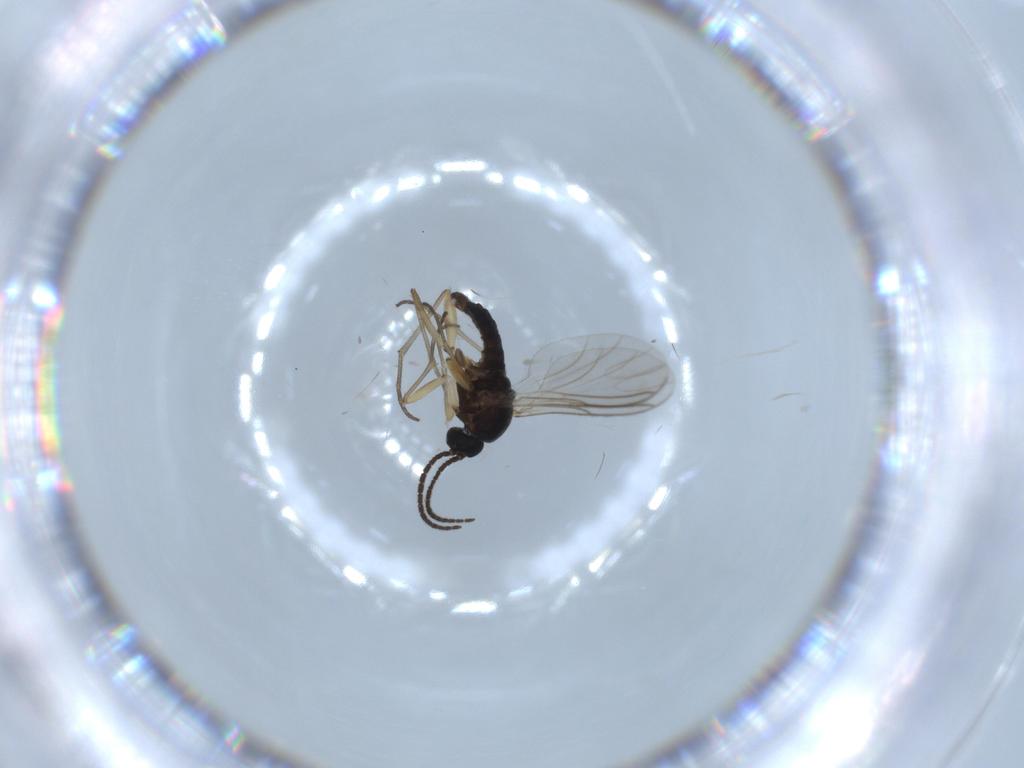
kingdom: Animalia
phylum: Arthropoda
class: Insecta
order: Diptera
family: Sciaridae
